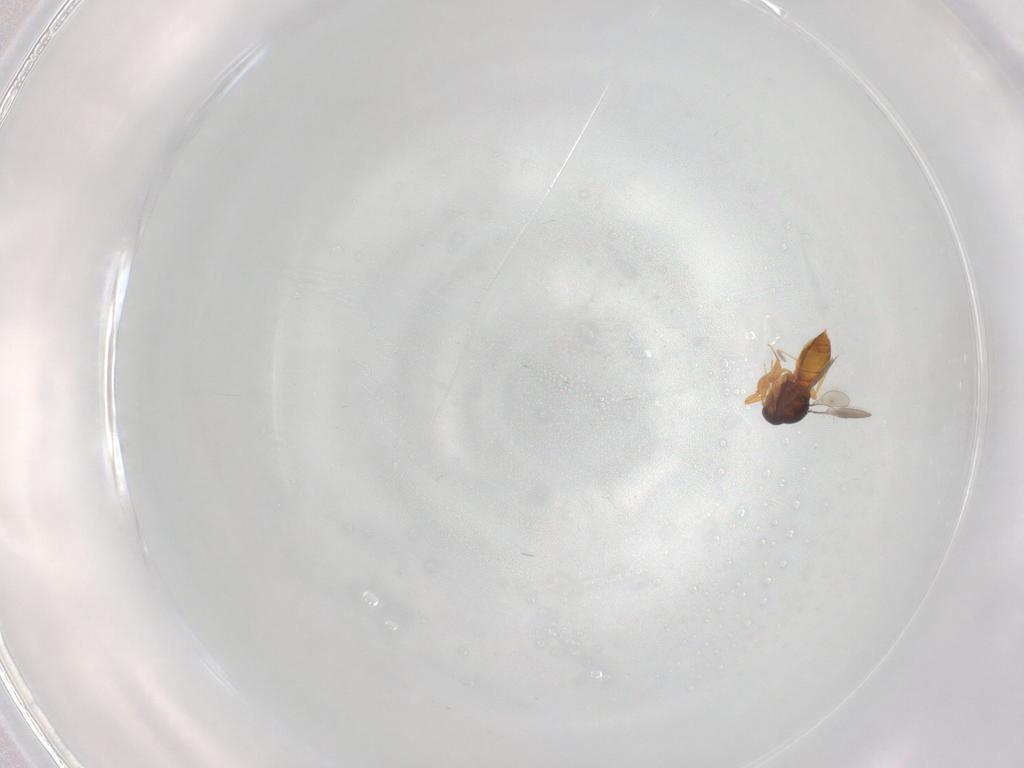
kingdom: Animalia
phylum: Arthropoda
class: Insecta
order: Hymenoptera
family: Scelionidae
